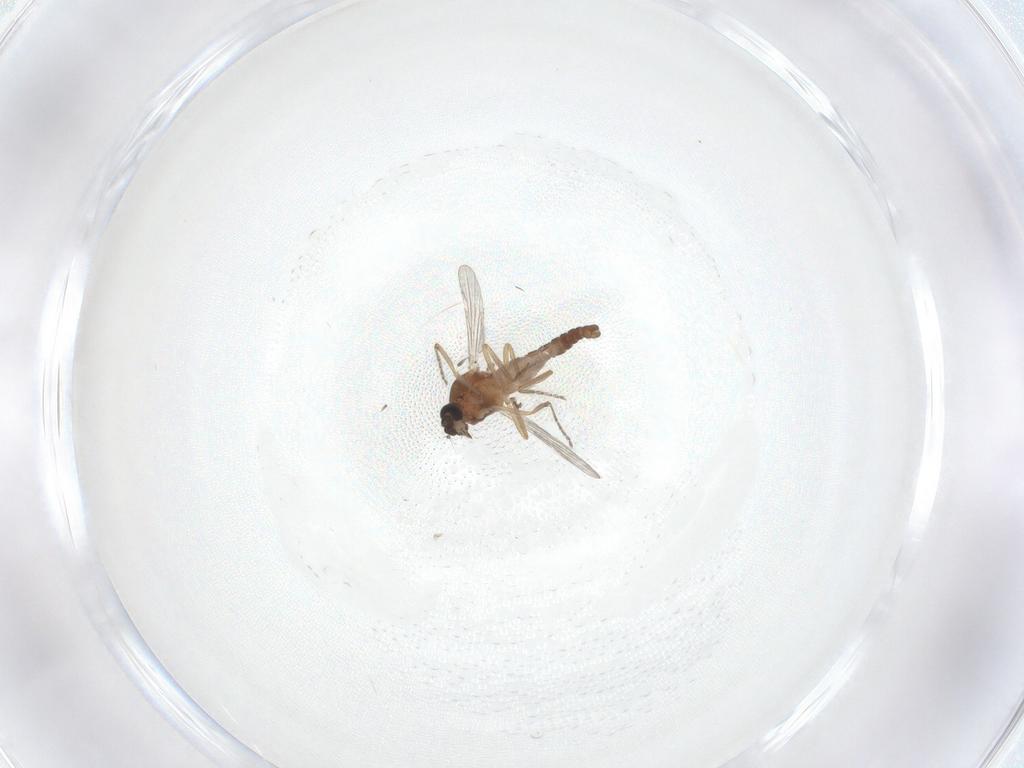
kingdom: Animalia
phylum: Arthropoda
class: Insecta
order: Diptera
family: Ceratopogonidae
